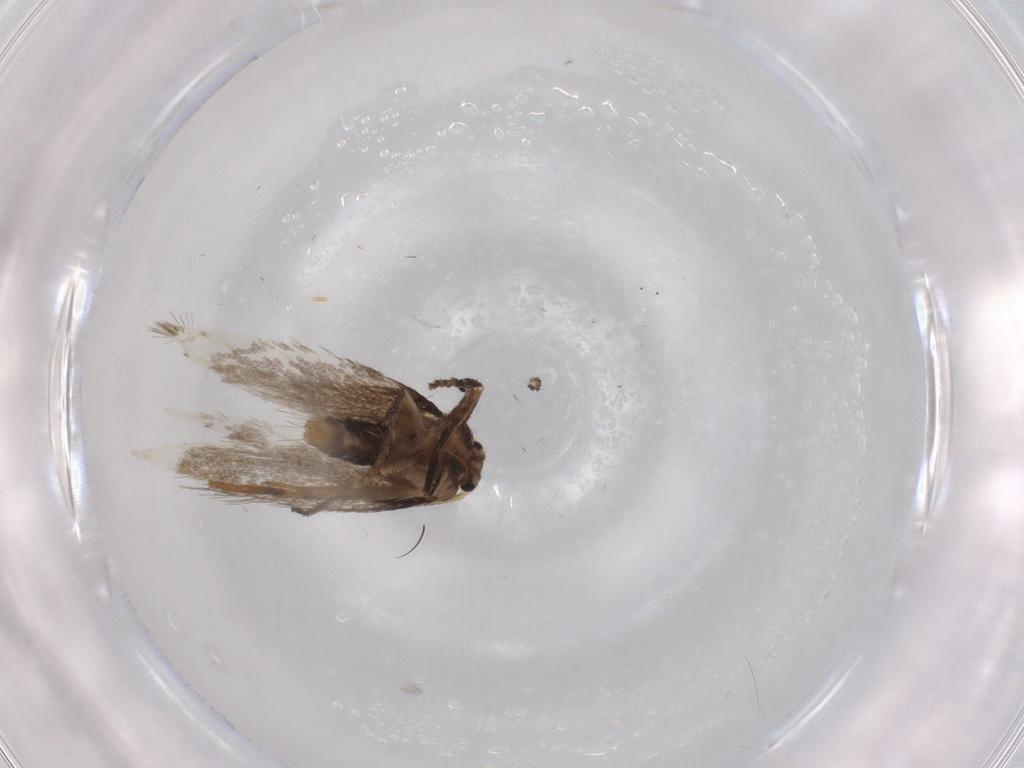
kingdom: Animalia
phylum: Arthropoda
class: Insecta
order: Lepidoptera
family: Nepticulidae
